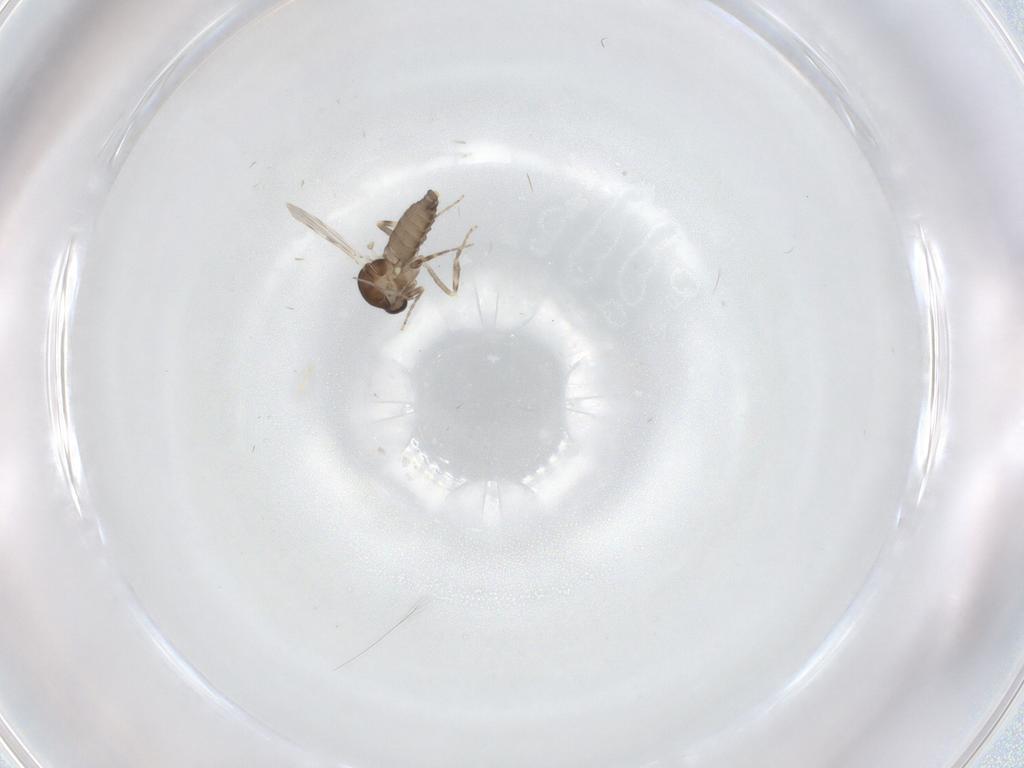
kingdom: Animalia
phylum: Arthropoda
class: Insecta
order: Diptera
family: Ceratopogonidae
